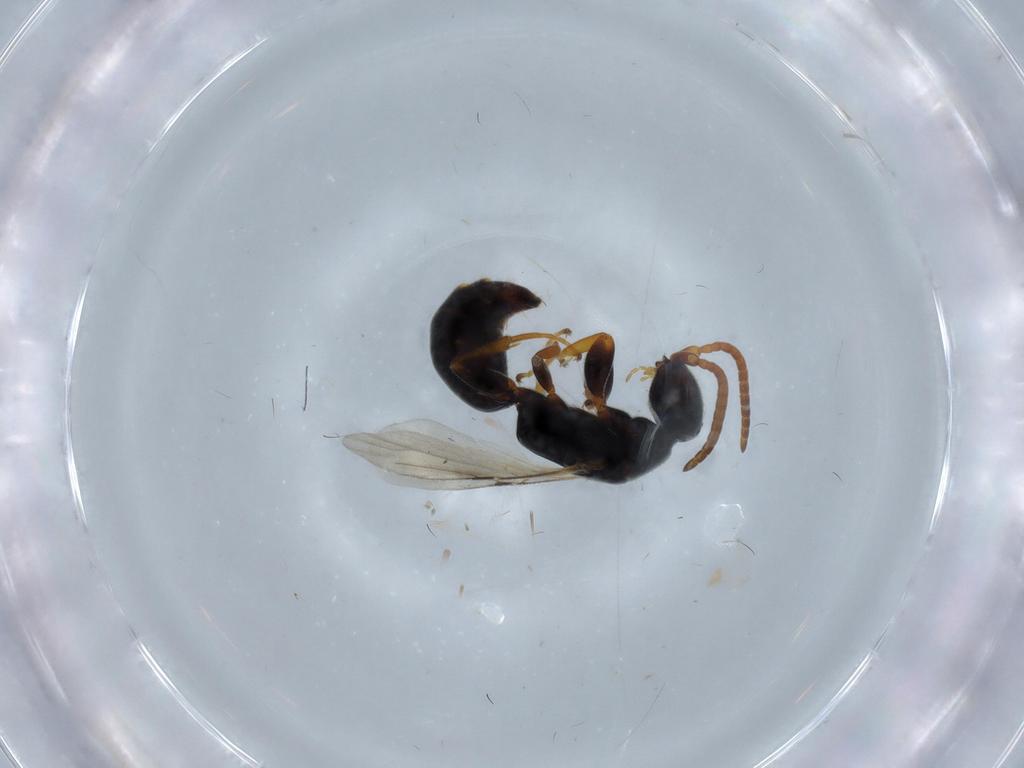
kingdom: Animalia
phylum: Arthropoda
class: Insecta
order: Hymenoptera
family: Bethylidae
